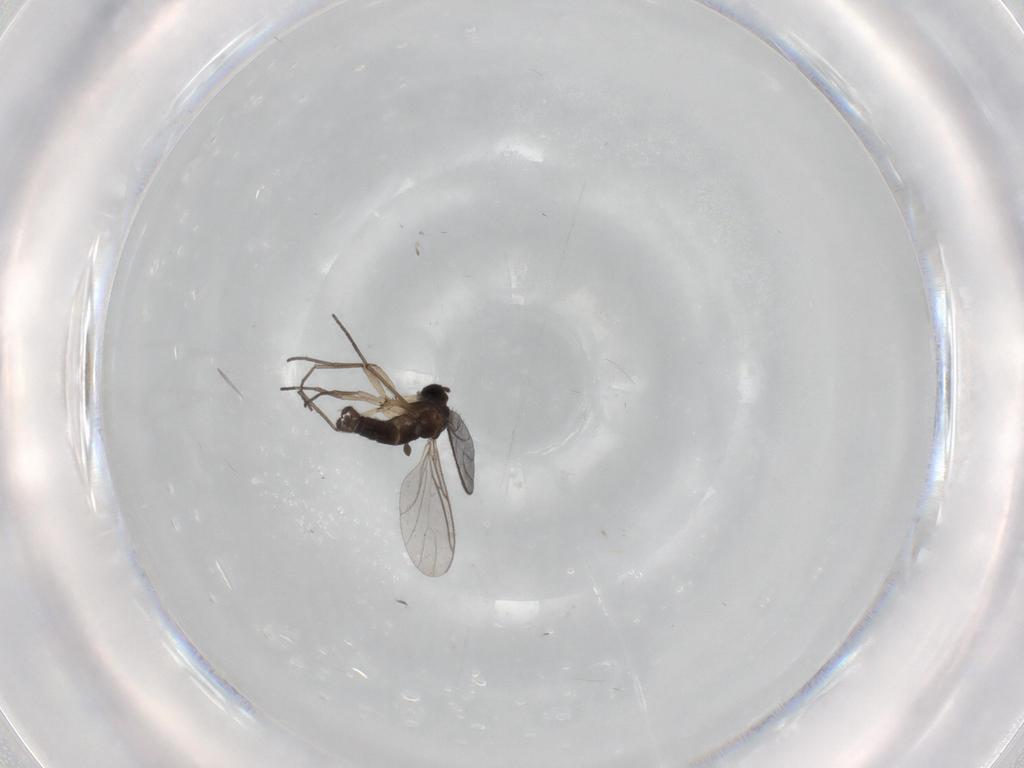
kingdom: Animalia
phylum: Arthropoda
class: Insecta
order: Diptera
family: Sciaridae
